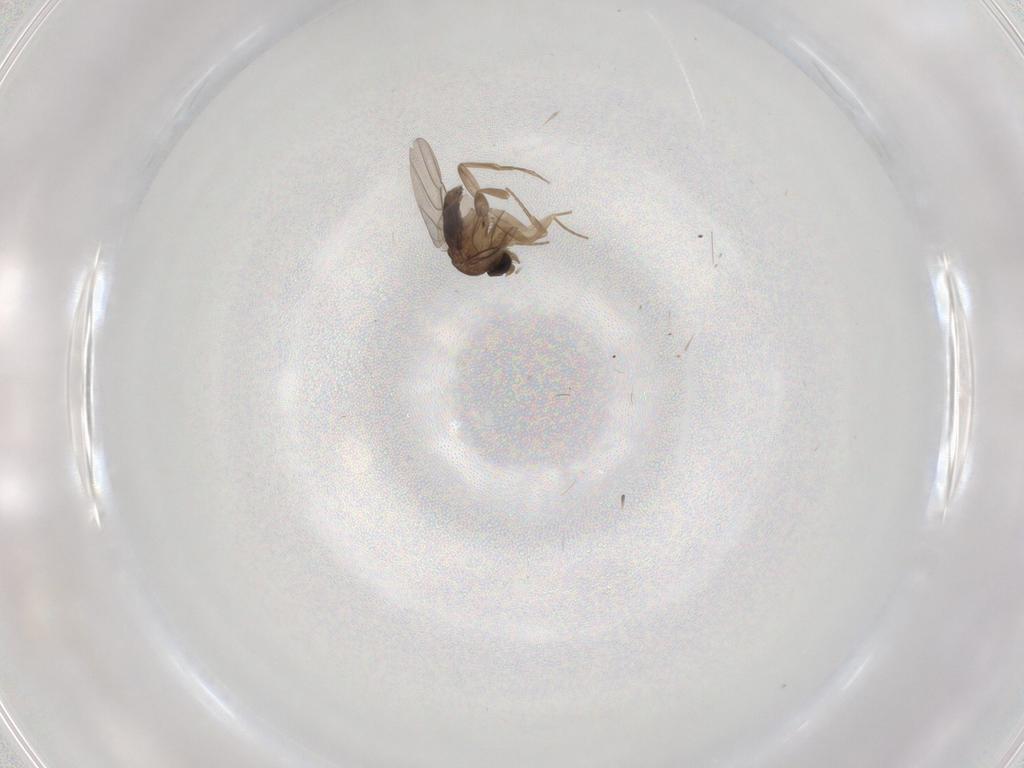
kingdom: Animalia
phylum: Arthropoda
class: Insecta
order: Diptera
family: Phoridae
